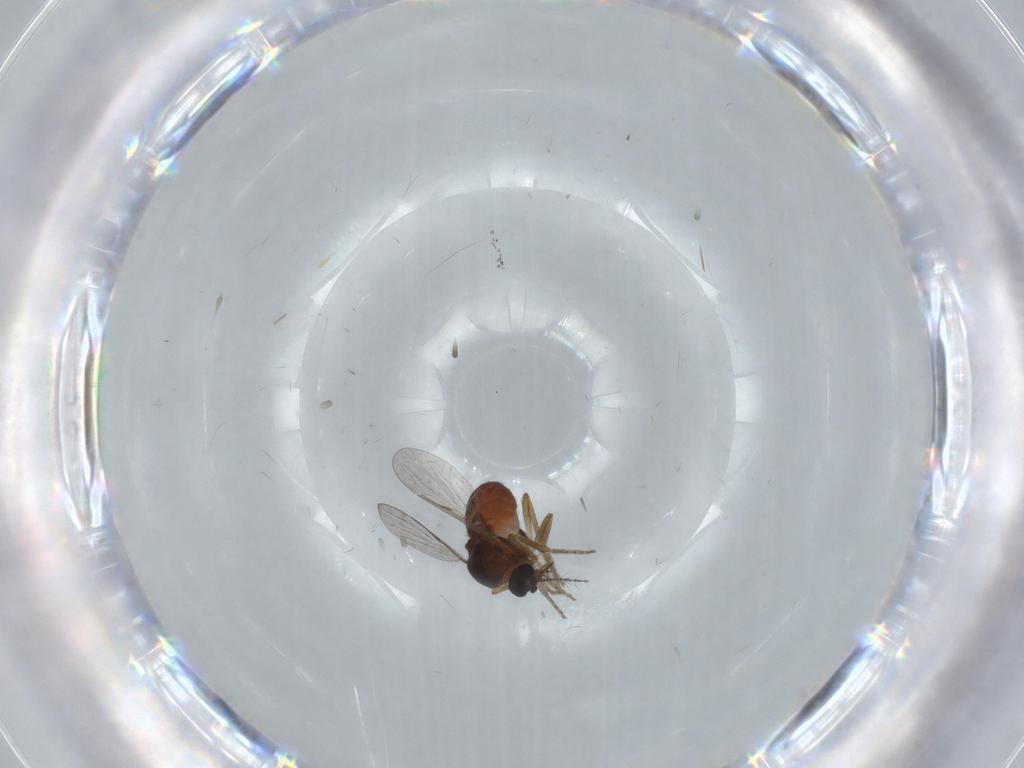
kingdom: Animalia
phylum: Arthropoda
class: Insecta
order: Diptera
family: Ceratopogonidae
